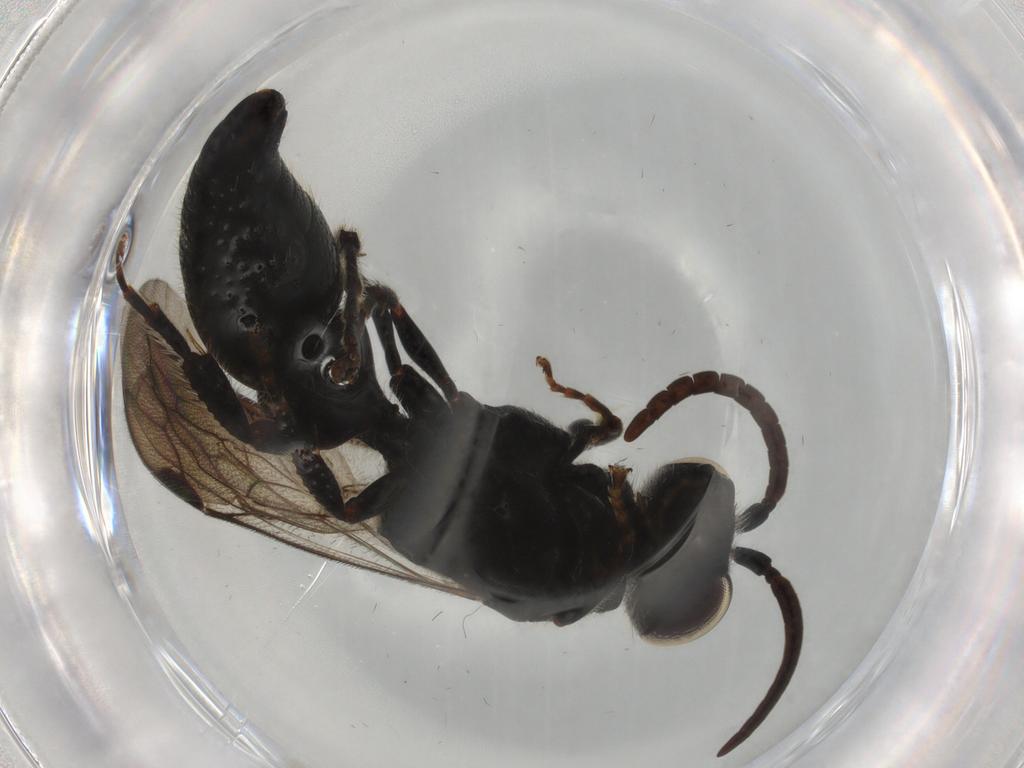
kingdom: Animalia
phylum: Arthropoda
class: Insecta
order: Hymenoptera
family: Tiphiidae
